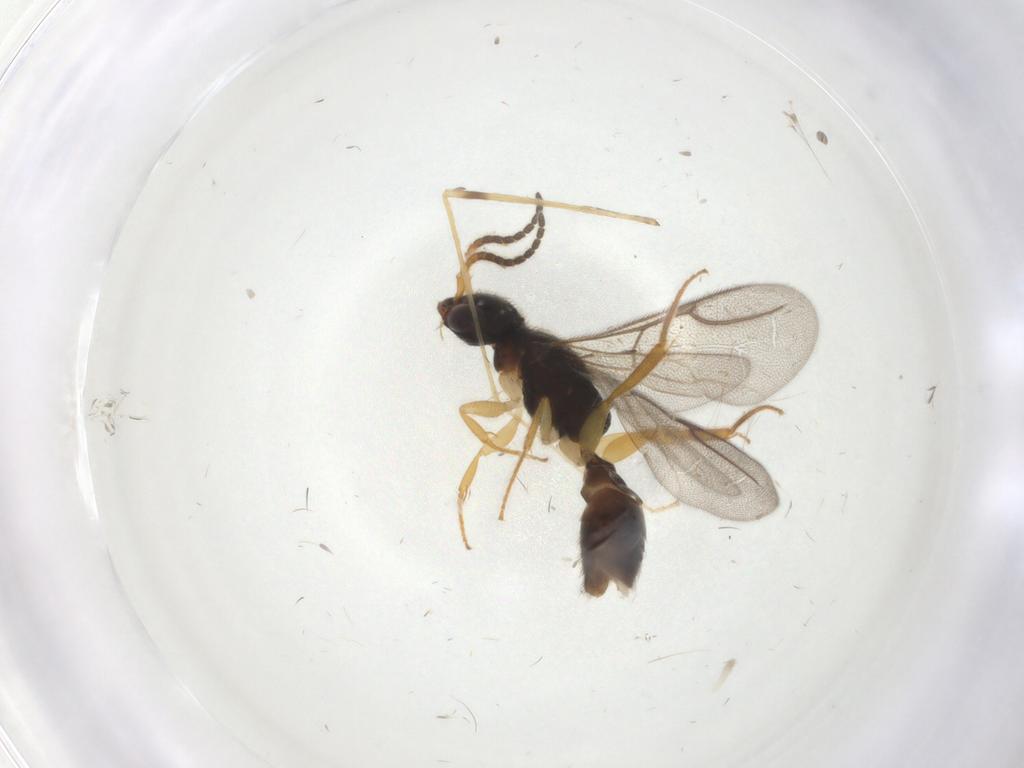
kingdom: Animalia
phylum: Arthropoda
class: Insecta
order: Hymenoptera
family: Bethylidae
